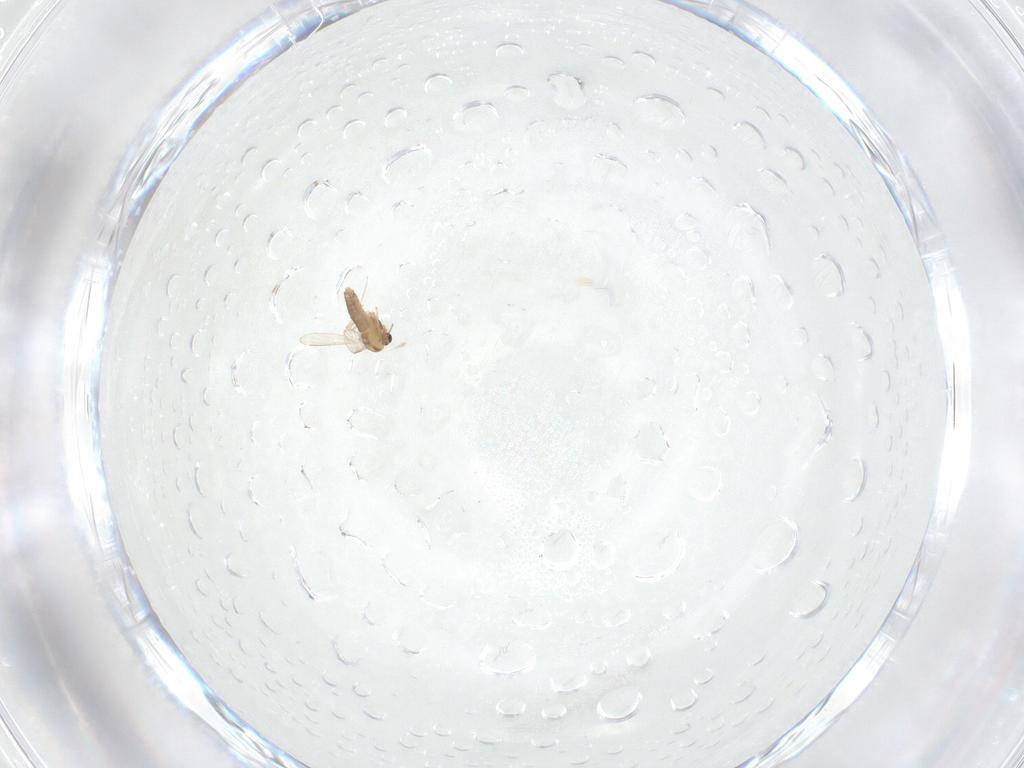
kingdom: Animalia
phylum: Arthropoda
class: Insecta
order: Diptera
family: Chironomidae
